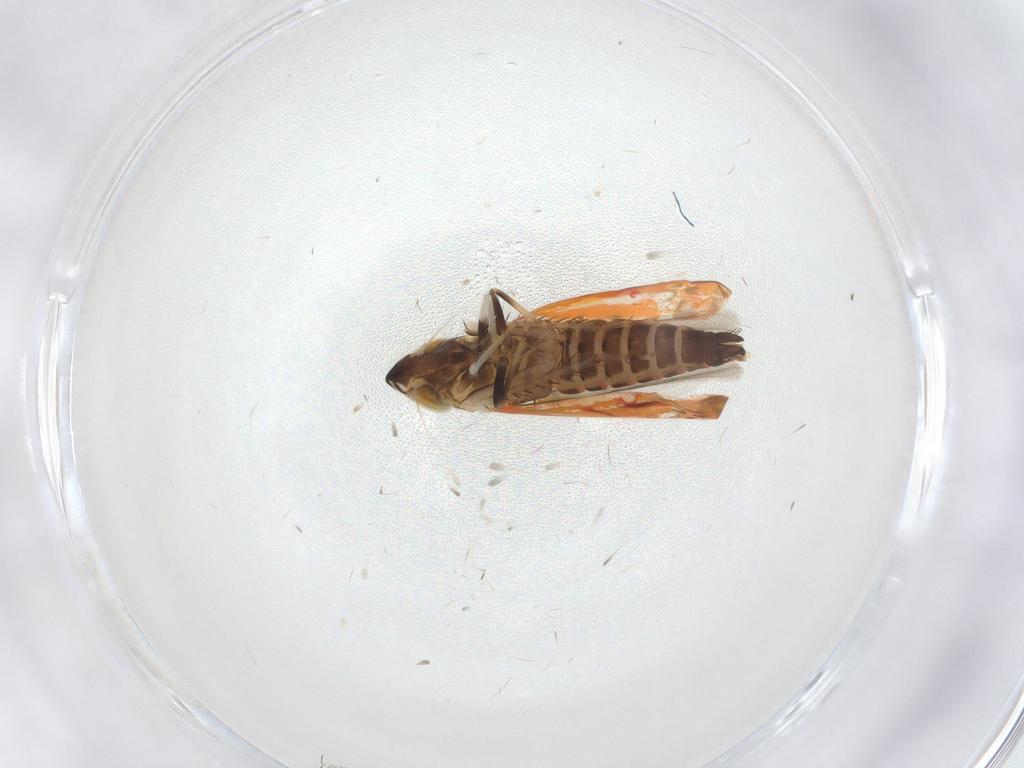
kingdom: Animalia
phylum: Arthropoda
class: Insecta
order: Hemiptera
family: Cicadellidae
